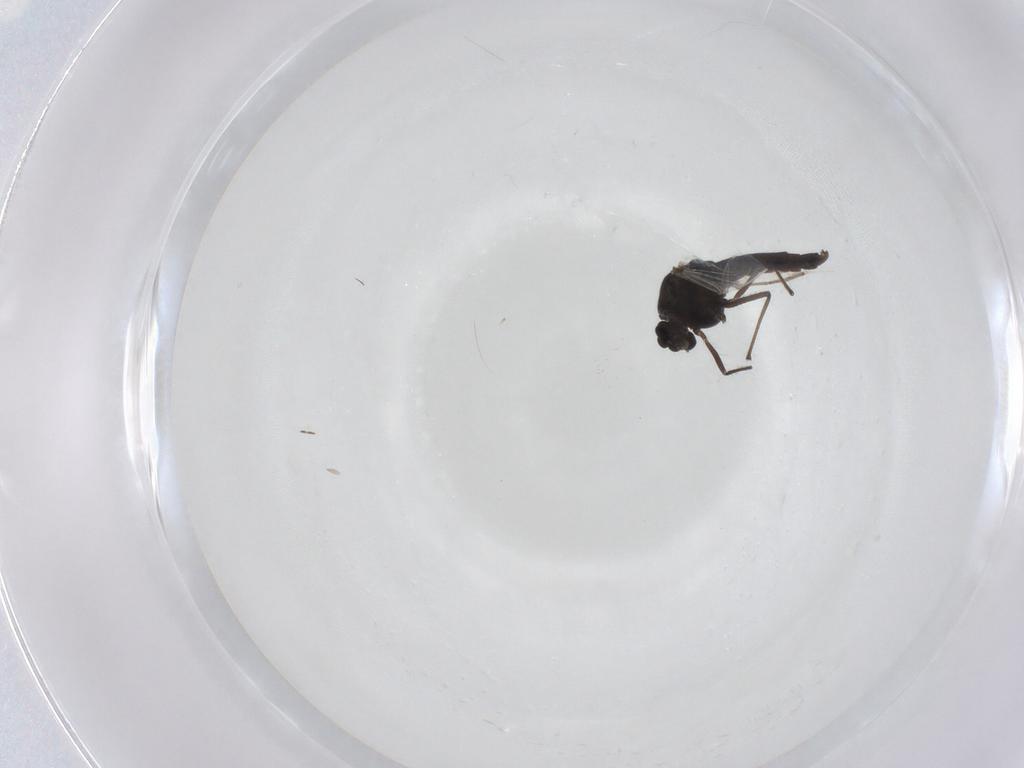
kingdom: Animalia
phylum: Arthropoda
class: Insecta
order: Diptera
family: Chironomidae
